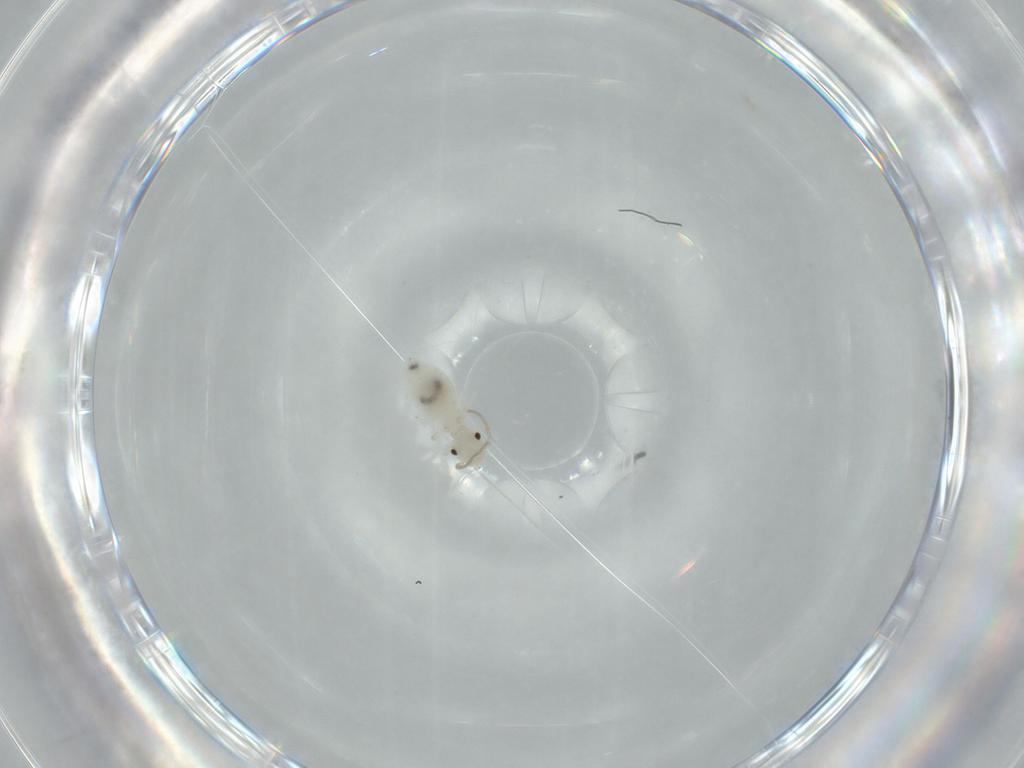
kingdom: Animalia
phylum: Arthropoda
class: Insecta
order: Psocodea
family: Caeciliusidae
